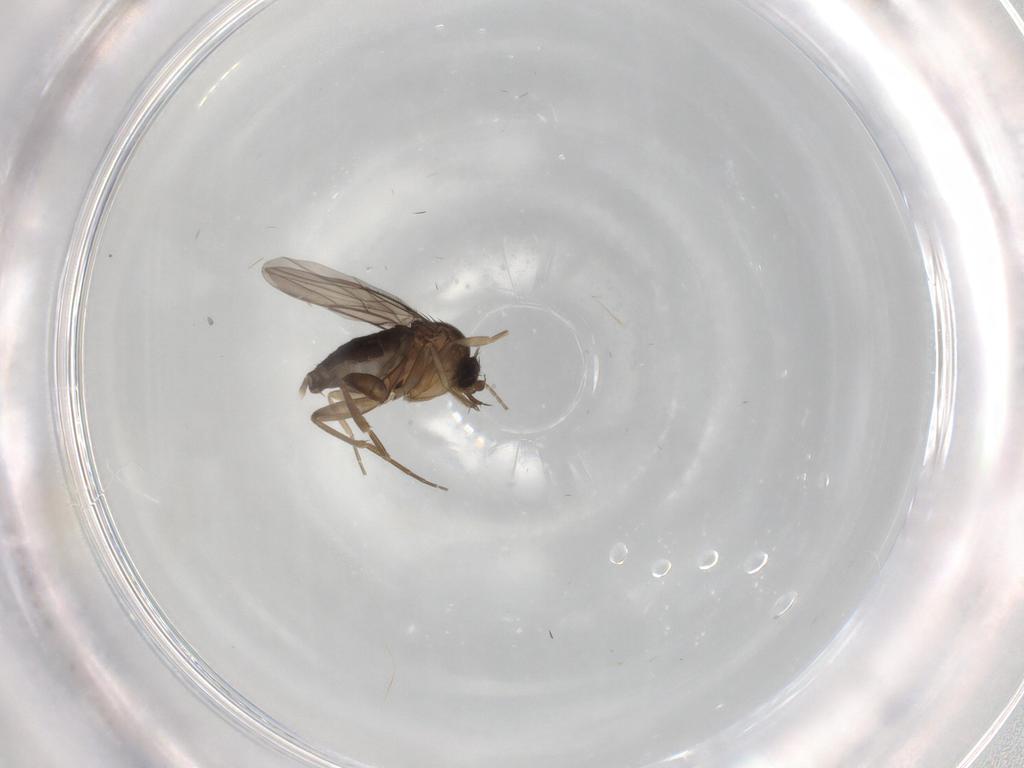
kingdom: Animalia
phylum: Arthropoda
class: Insecta
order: Diptera
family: Phoridae
